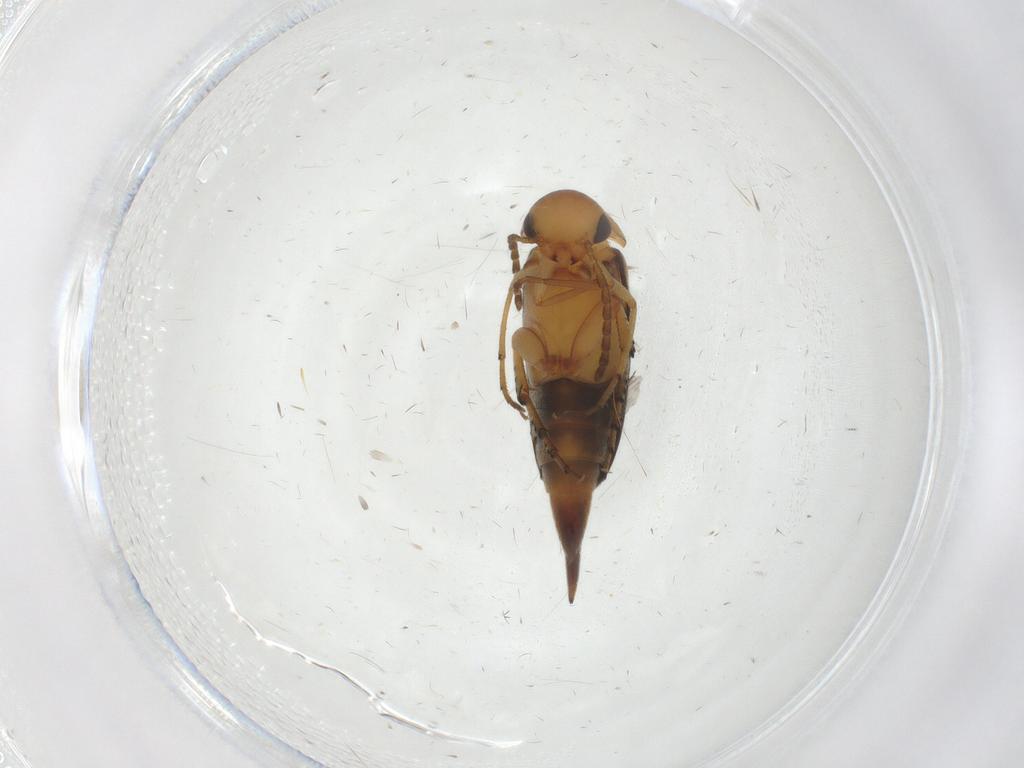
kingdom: Animalia
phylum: Arthropoda
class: Insecta
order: Coleoptera
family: Mordellidae
